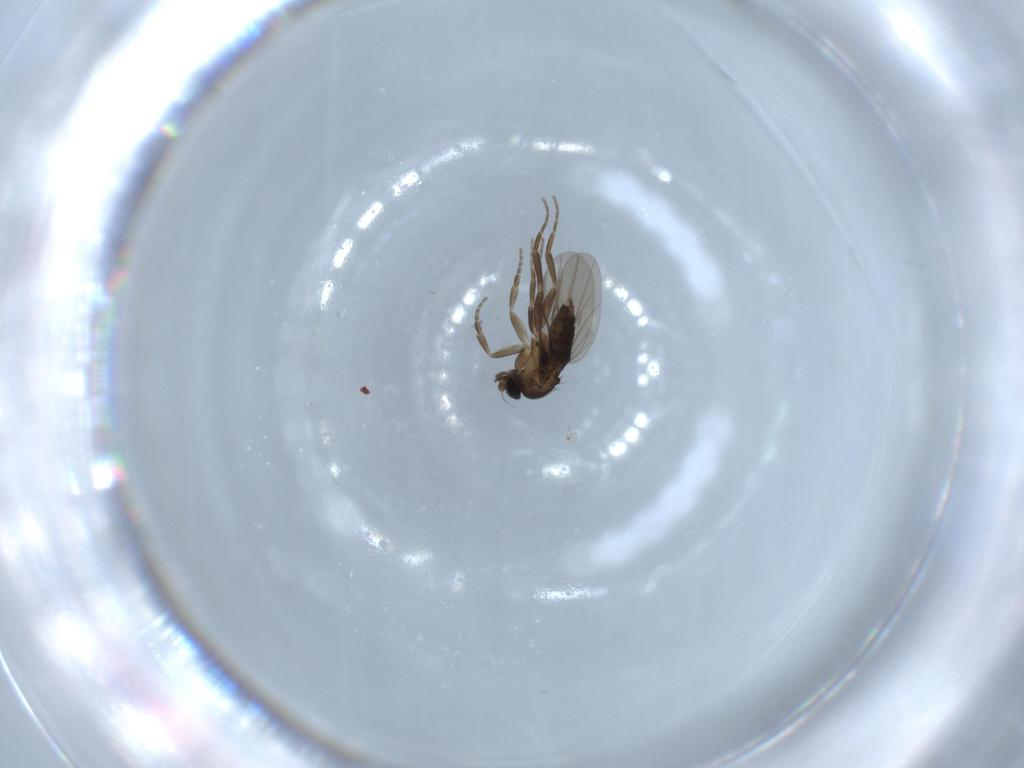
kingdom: Animalia
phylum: Arthropoda
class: Insecta
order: Diptera
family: Phoridae
